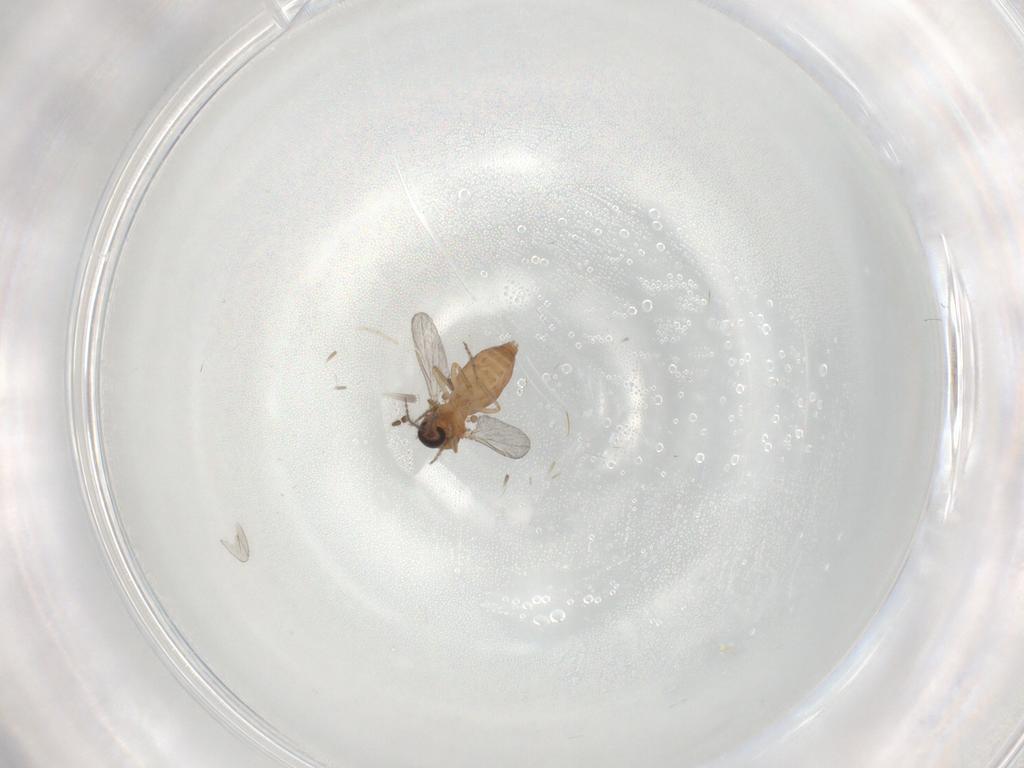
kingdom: Animalia
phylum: Arthropoda
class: Insecta
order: Diptera
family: Ceratopogonidae
